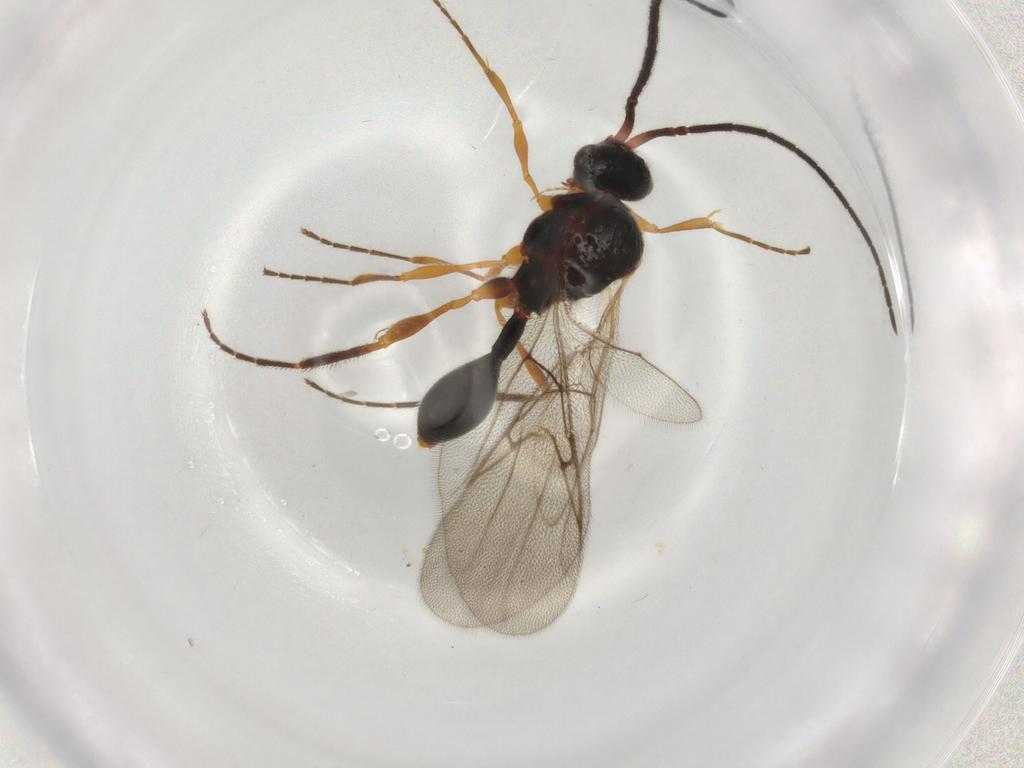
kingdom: Animalia
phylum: Arthropoda
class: Insecta
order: Hymenoptera
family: Diapriidae
